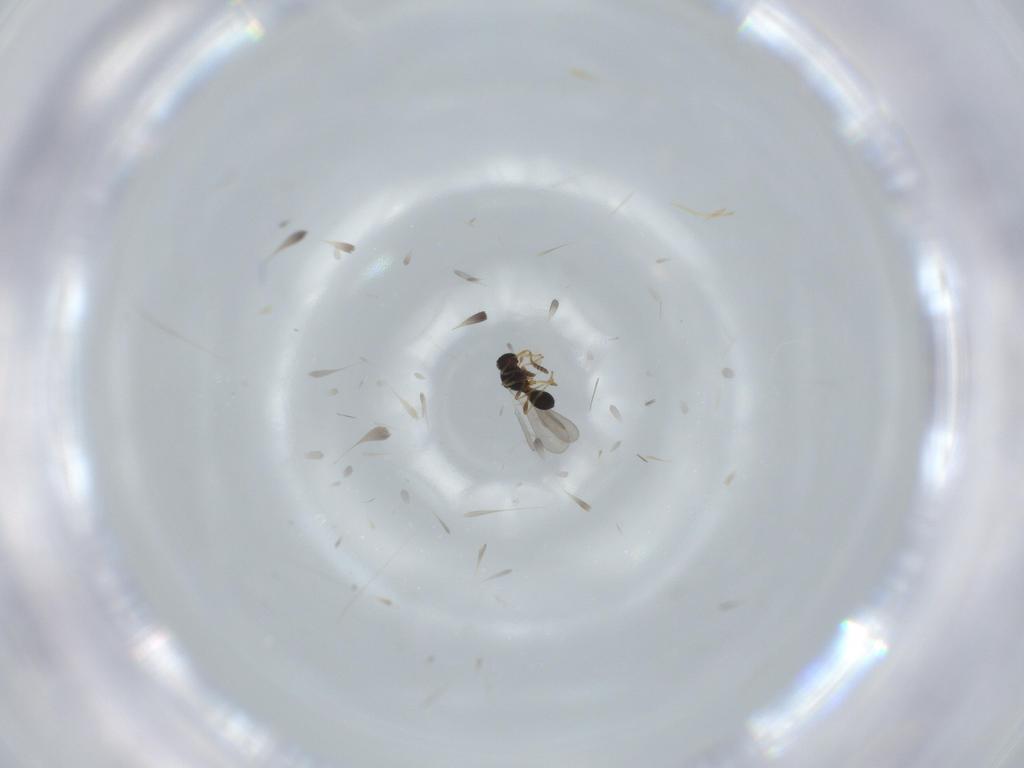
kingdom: Animalia
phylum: Arthropoda
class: Insecta
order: Hymenoptera
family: Platygastridae
